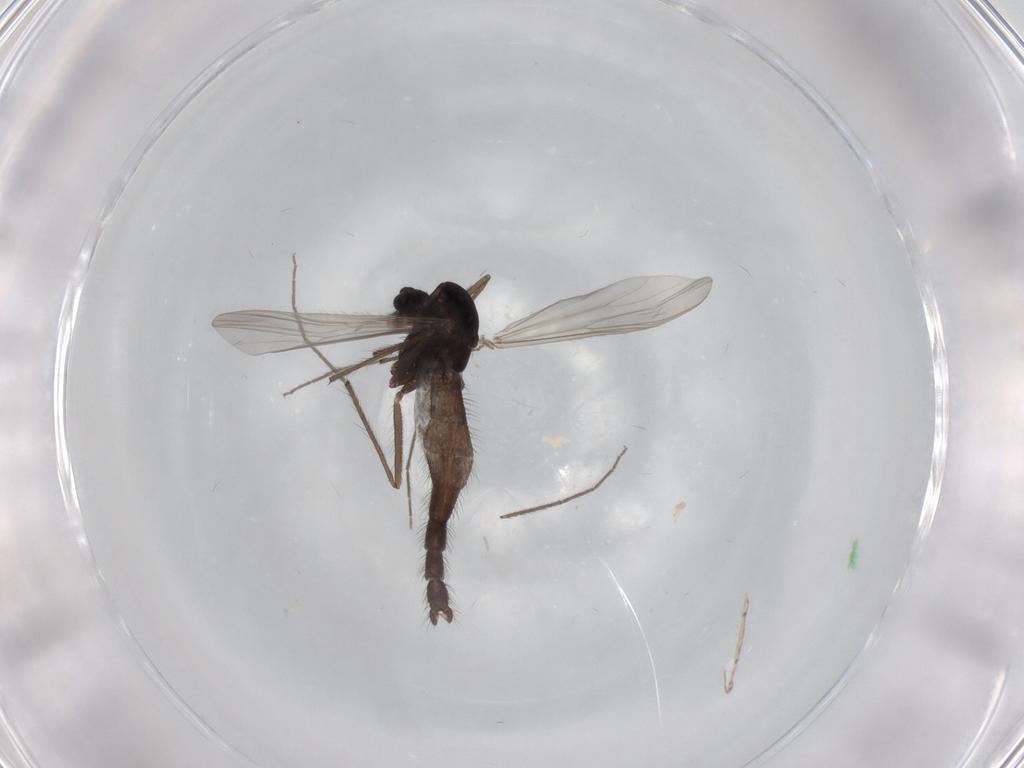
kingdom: Animalia
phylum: Arthropoda
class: Insecta
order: Diptera
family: Chironomidae
